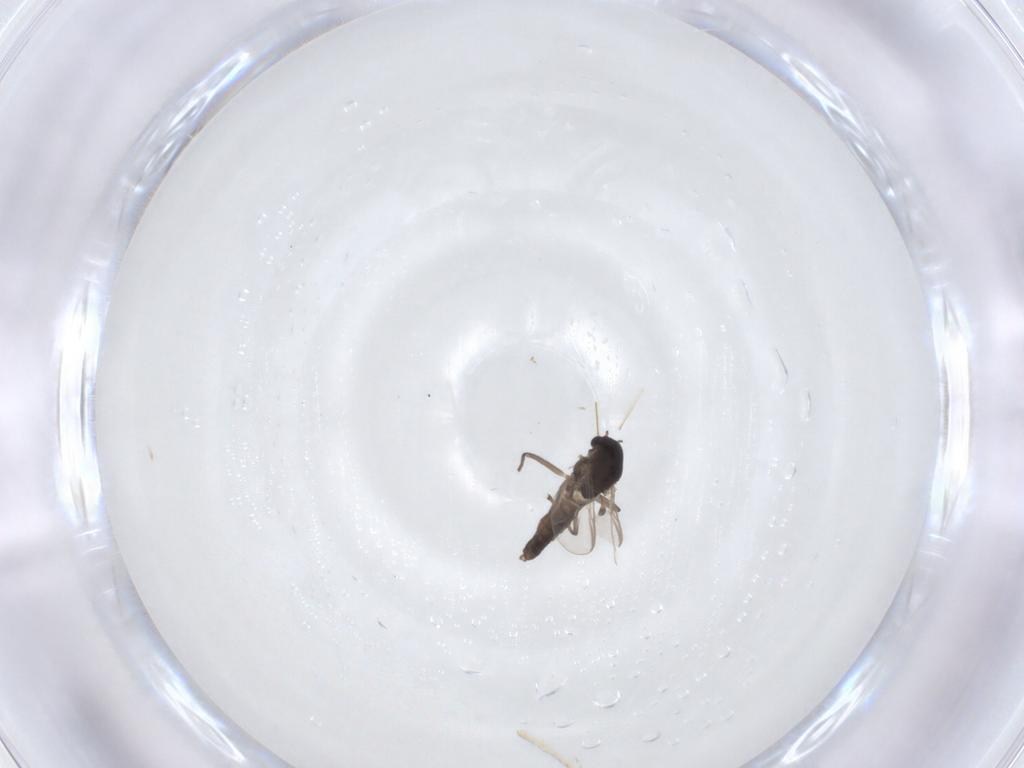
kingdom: Animalia
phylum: Arthropoda
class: Insecta
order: Diptera
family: Chironomidae
